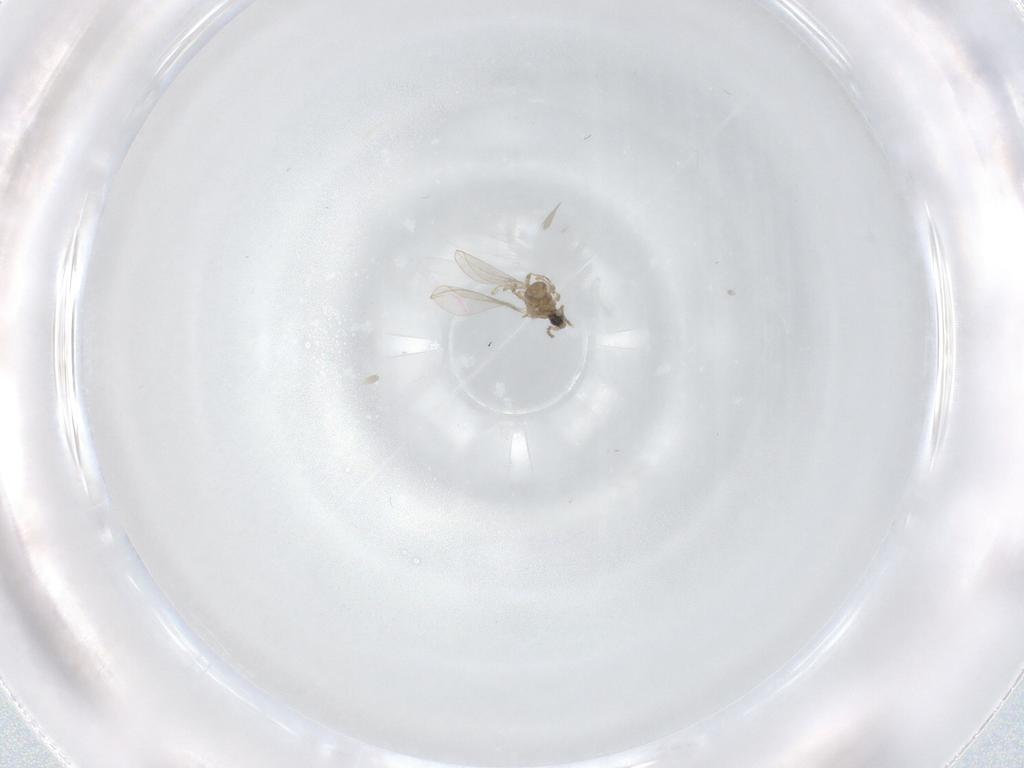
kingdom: Animalia
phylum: Arthropoda
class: Insecta
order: Diptera
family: Cecidomyiidae
